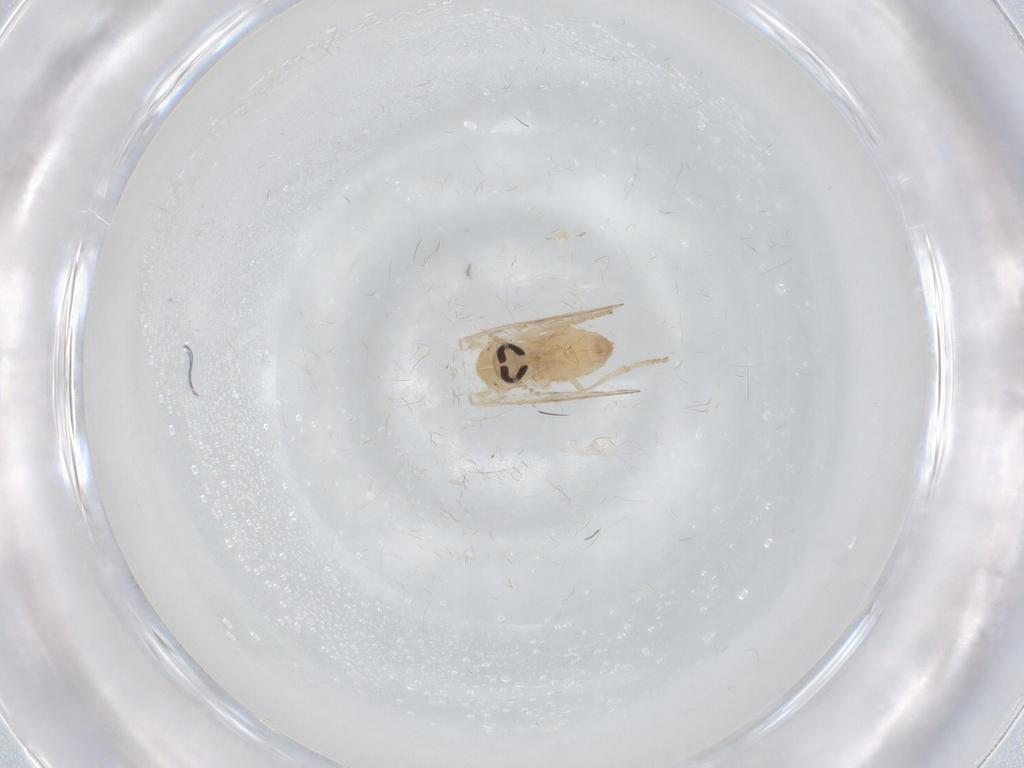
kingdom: Animalia
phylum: Arthropoda
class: Insecta
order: Diptera
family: Psychodidae
